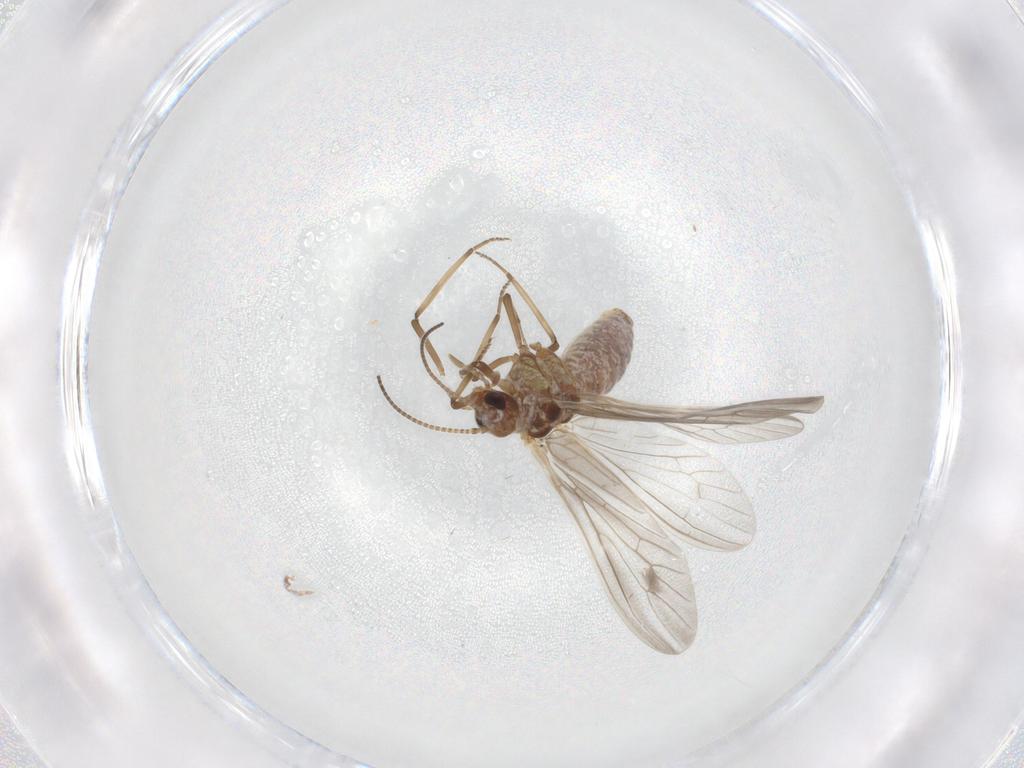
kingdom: Animalia
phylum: Arthropoda
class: Insecta
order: Neuroptera
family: Coniopterygidae
